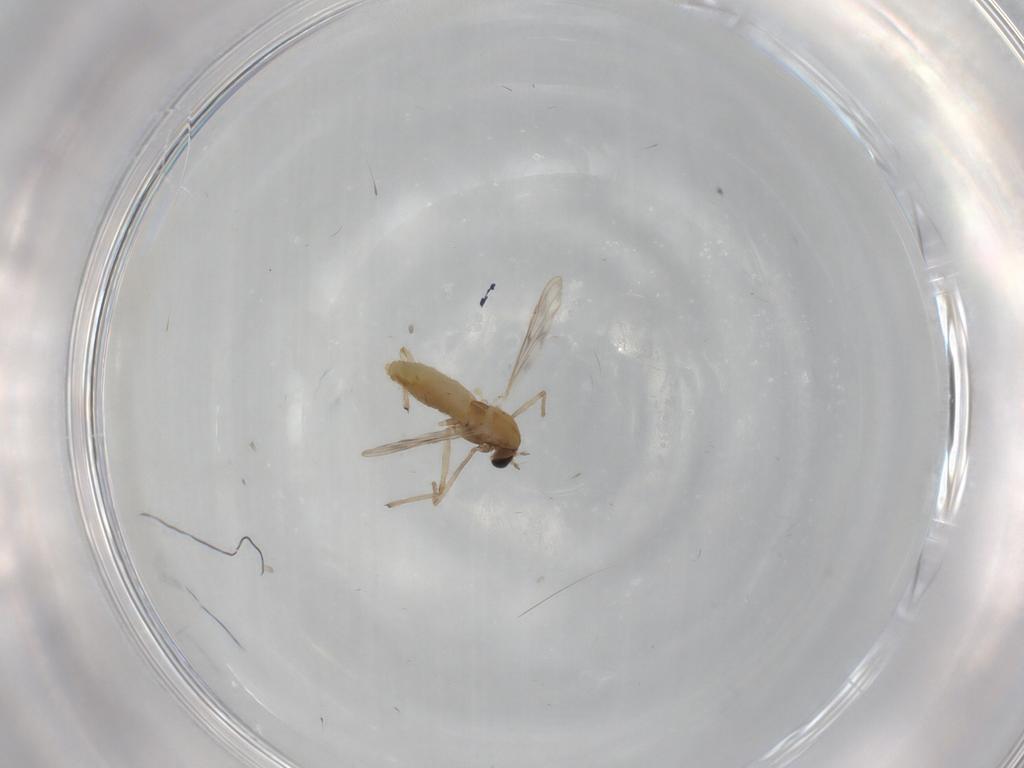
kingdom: Animalia
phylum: Arthropoda
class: Insecta
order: Diptera
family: Chironomidae
